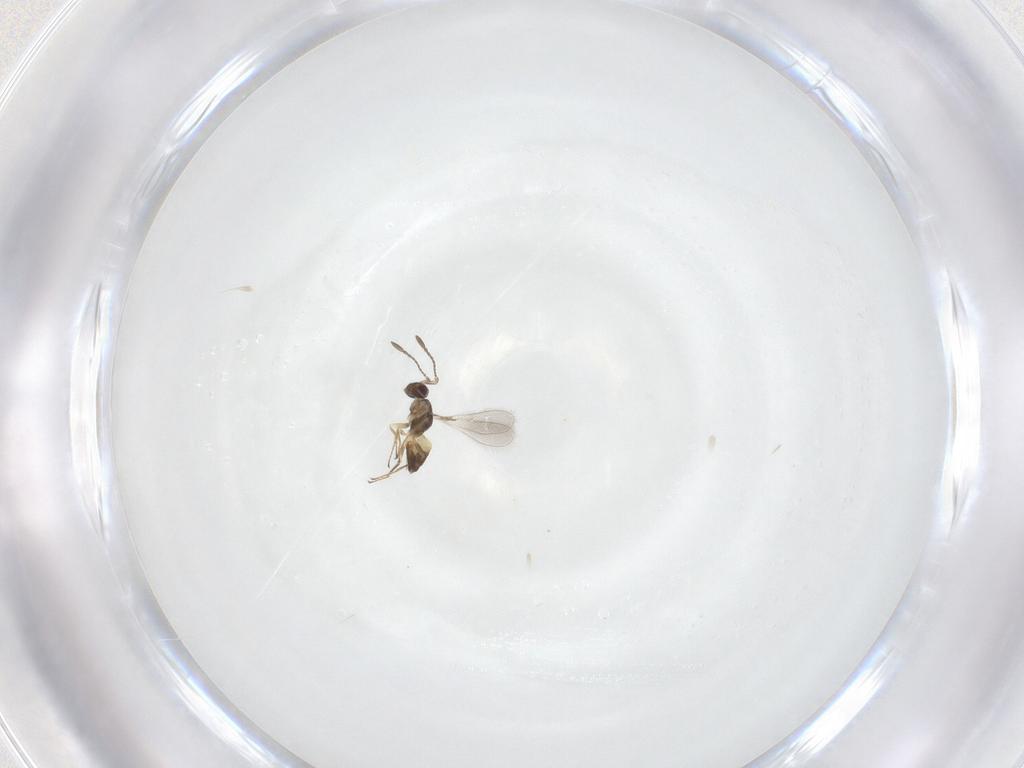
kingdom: Animalia
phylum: Arthropoda
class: Insecta
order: Hymenoptera
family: Mymaridae
